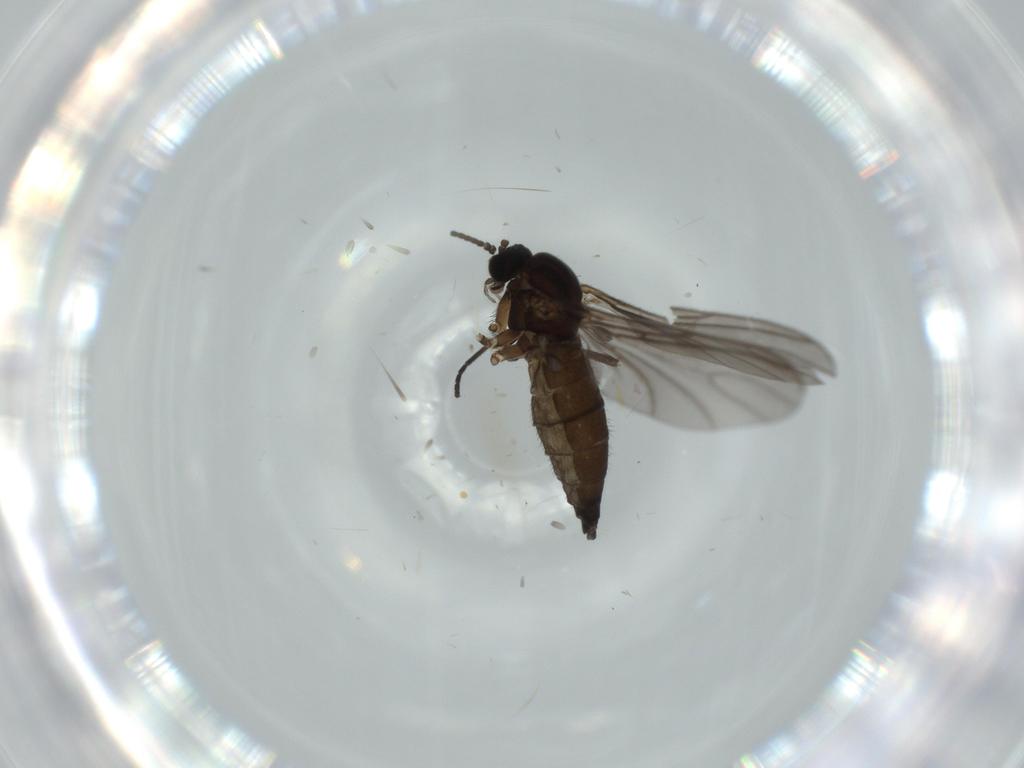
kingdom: Animalia
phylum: Arthropoda
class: Insecta
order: Diptera
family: Sciaridae
